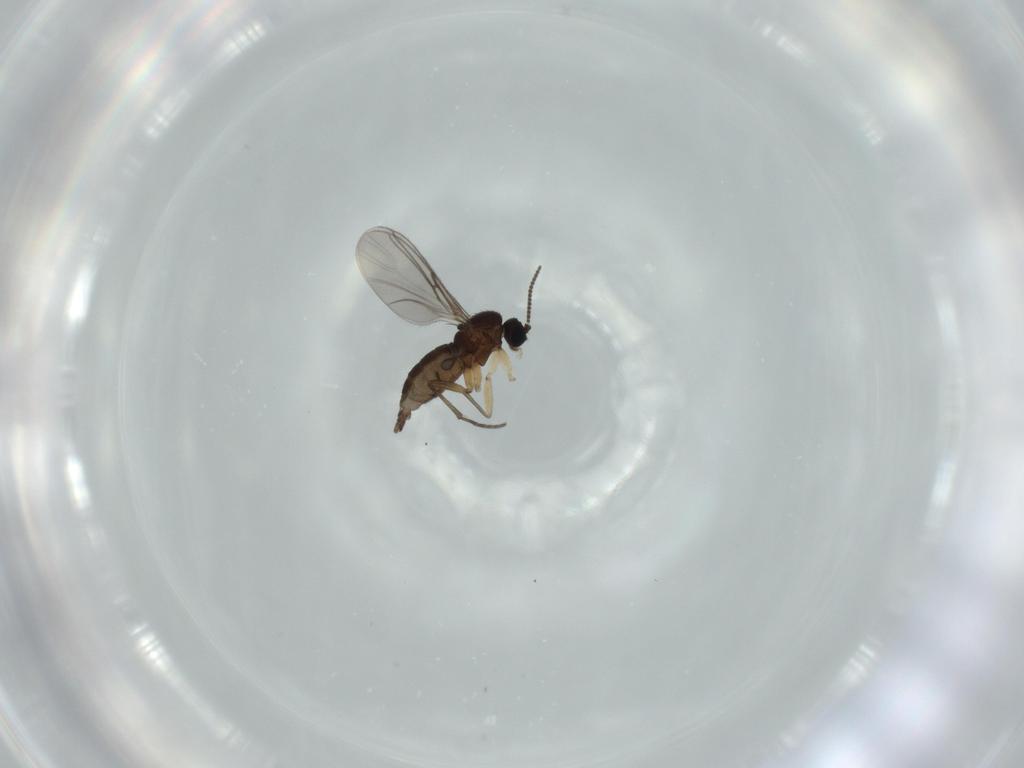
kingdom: Animalia
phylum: Arthropoda
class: Insecta
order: Diptera
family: Sciaridae
